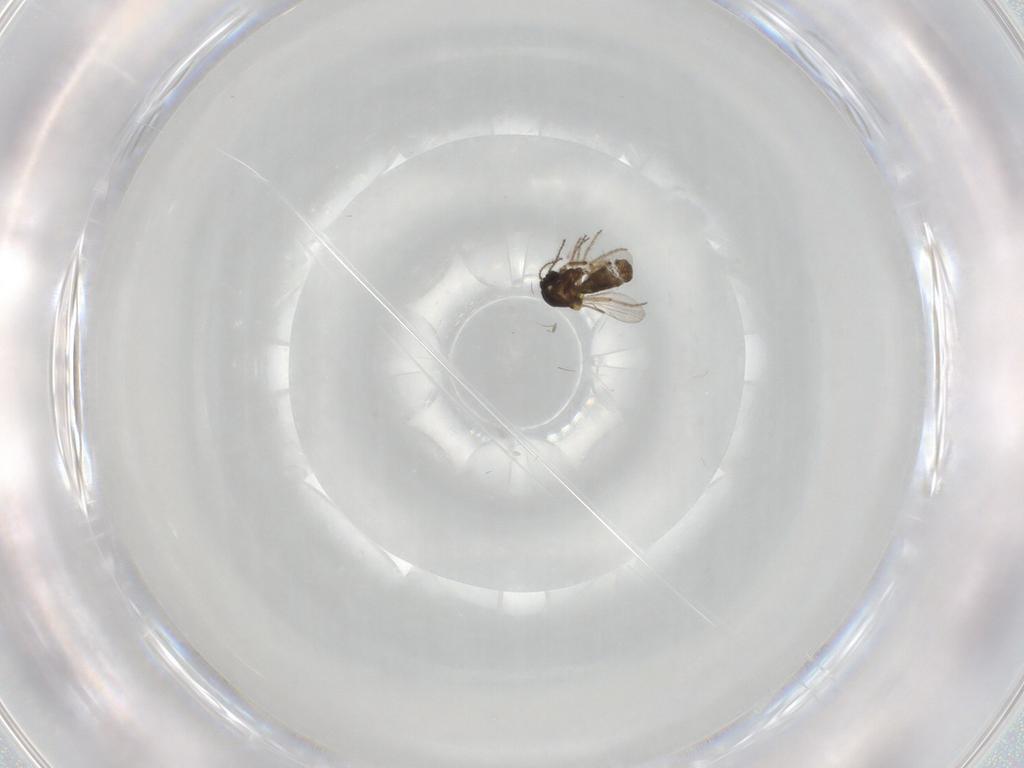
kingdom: Animalia
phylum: Arthropoda
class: Insecta
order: Diptera
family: Ceratopogonidae
